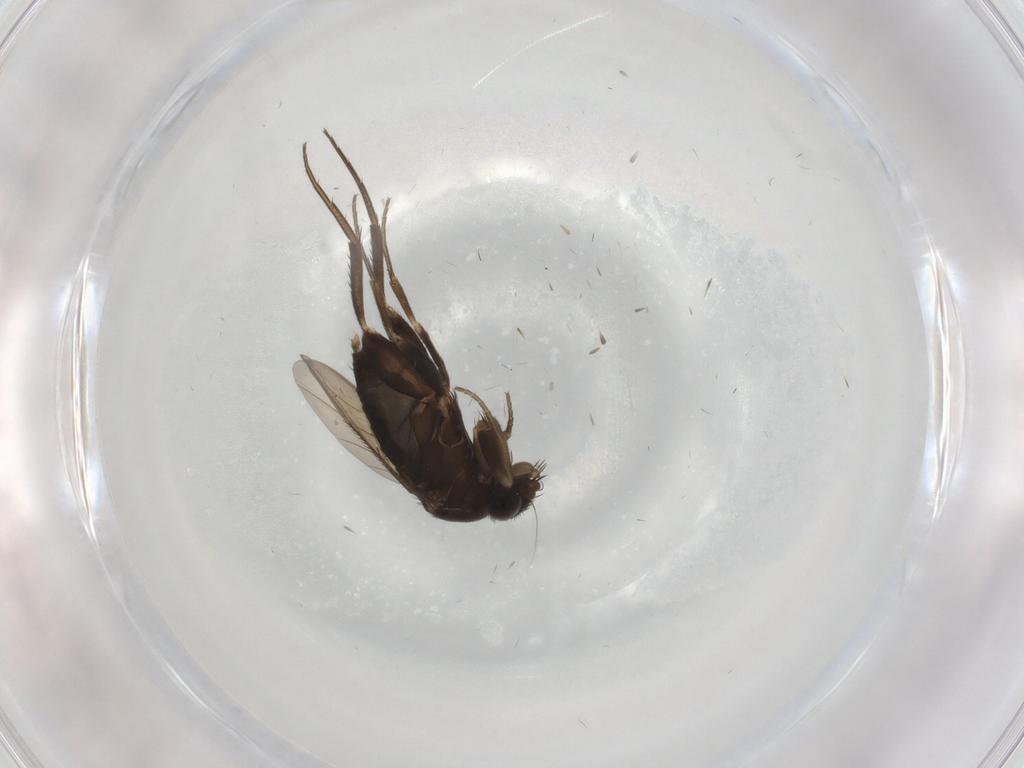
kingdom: Animalia
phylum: Arthropoda
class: Insecta
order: Diptera
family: Phoridae
